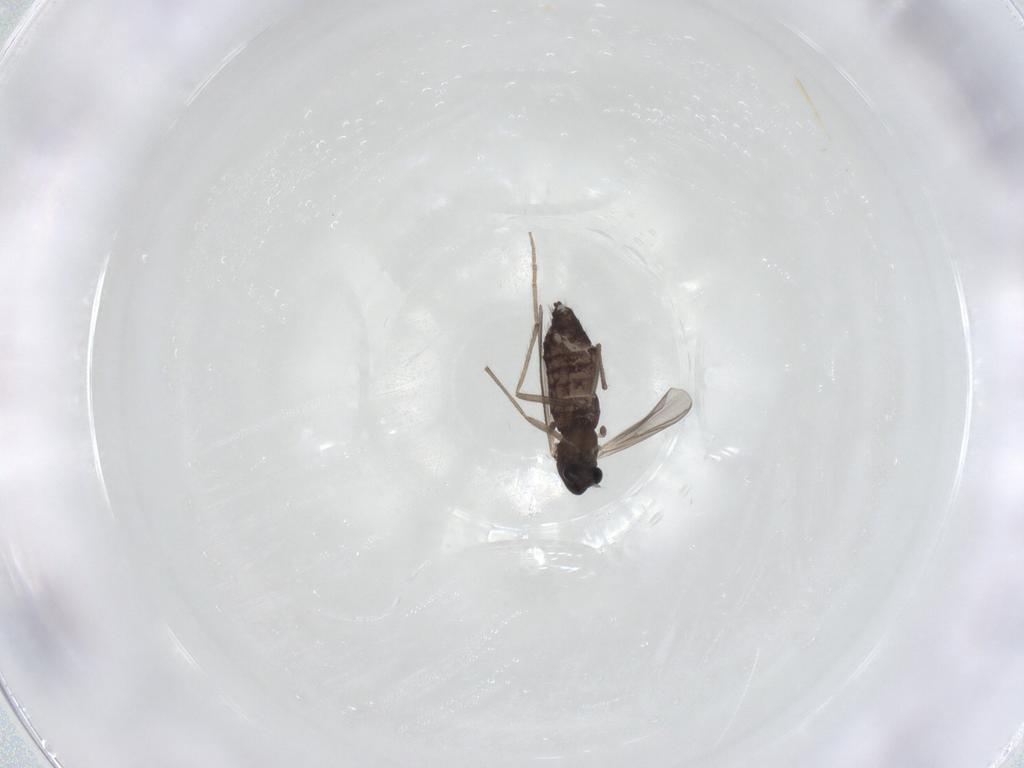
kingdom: Animalia
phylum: Arthropoda
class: Insecta
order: Diptera
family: Chironomidae
